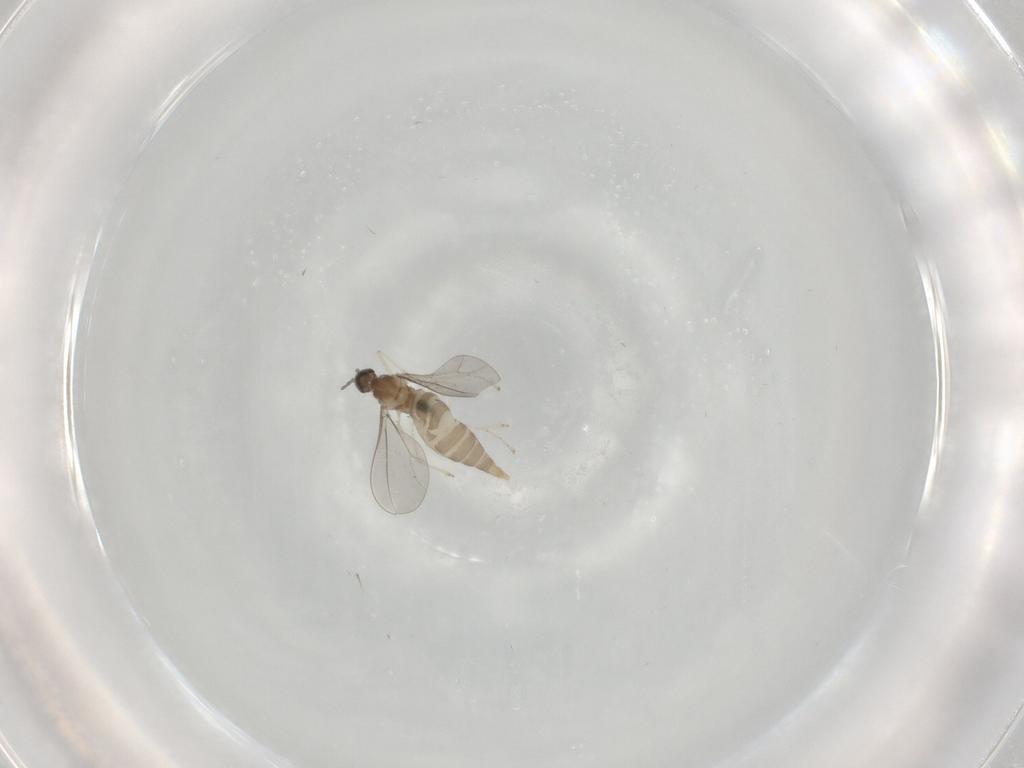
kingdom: Animalia
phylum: Arthropoda
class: Insecta
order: Diptera
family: Cecidomyiidae
